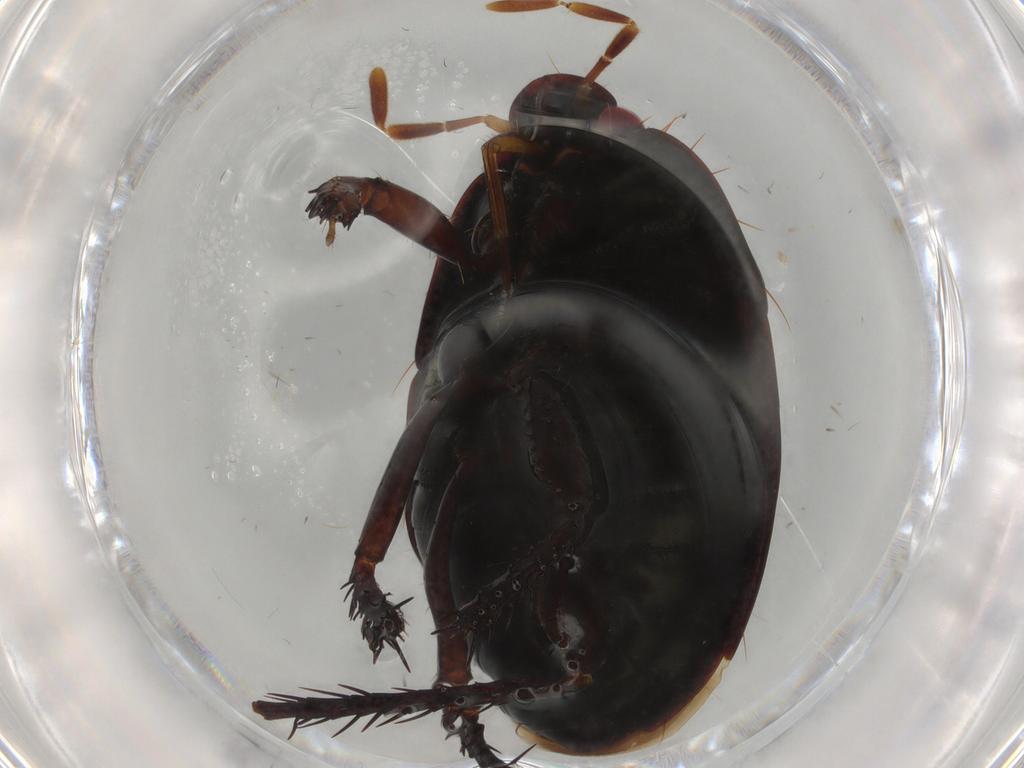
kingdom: Animalia
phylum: Arthropoda
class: Insecta
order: Hemiptera
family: Cydnidae
